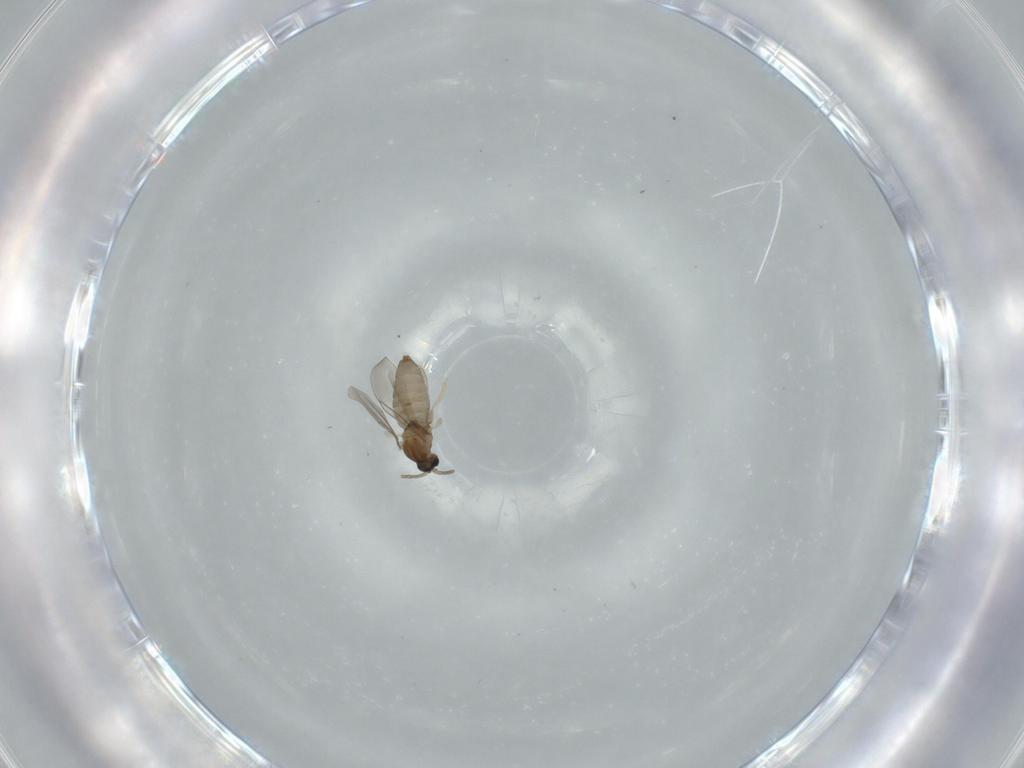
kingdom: Animalia
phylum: Arthropoda
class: Insecta
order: Diptera
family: Cecidomyiidae
